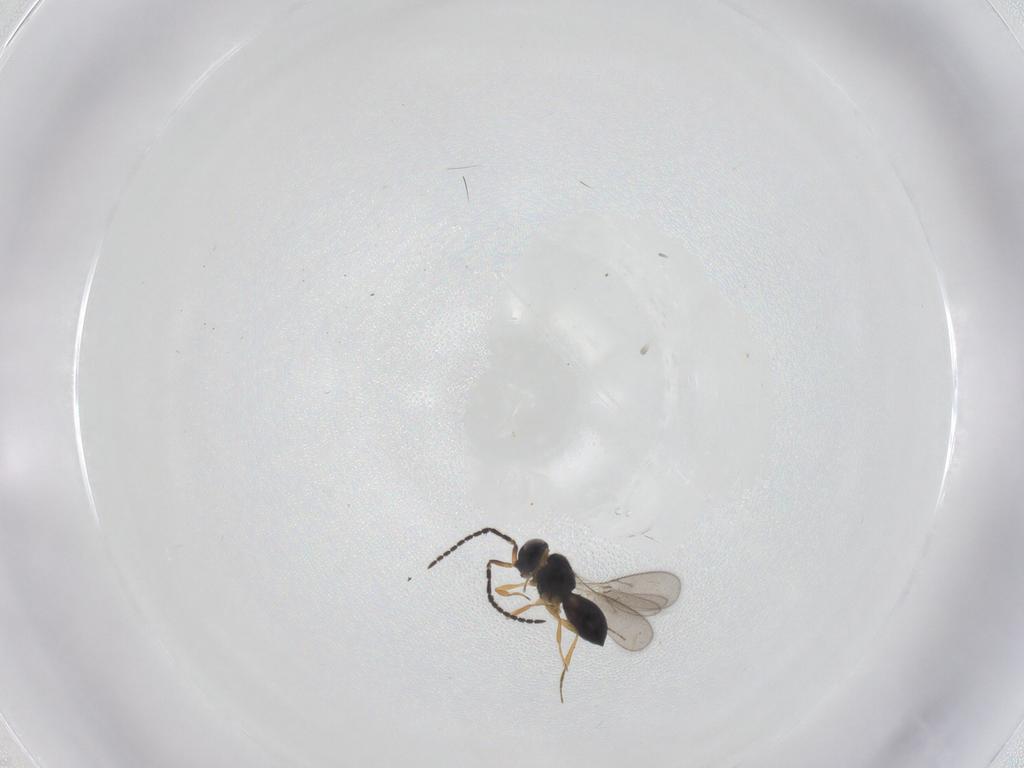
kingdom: Animalia
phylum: Arthropoda
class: Insecta
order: Hymenoptera
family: Scelionidae
